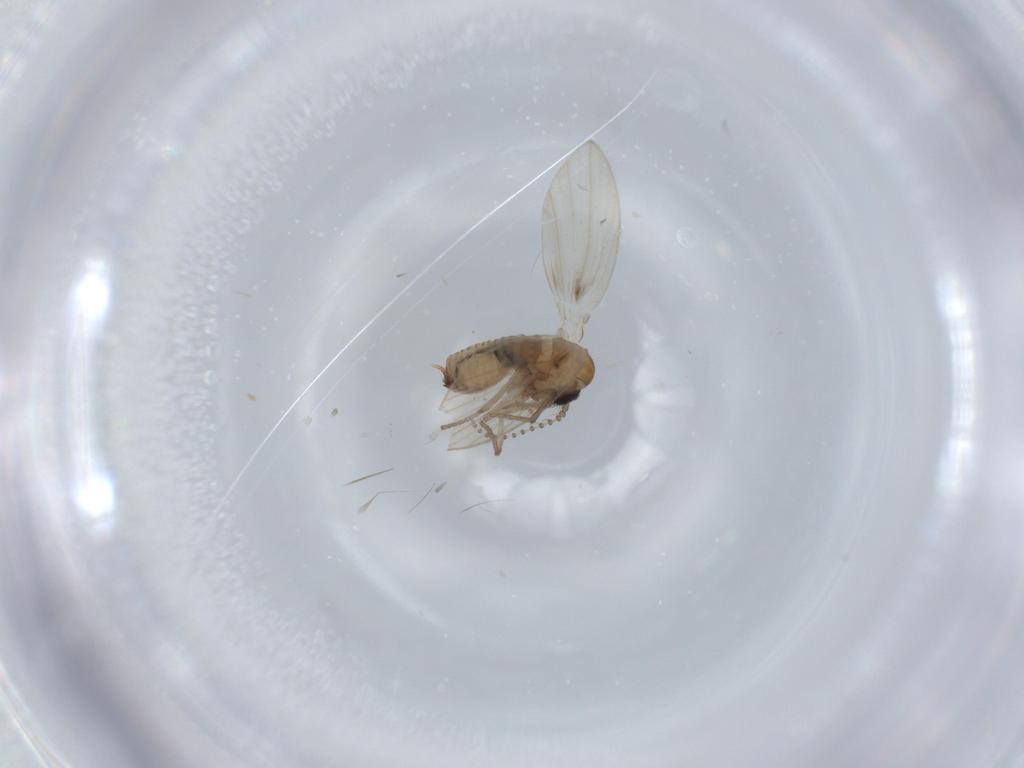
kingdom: Animalia
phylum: Arthropoda
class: Insecta
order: Diptera
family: Psychodidae
